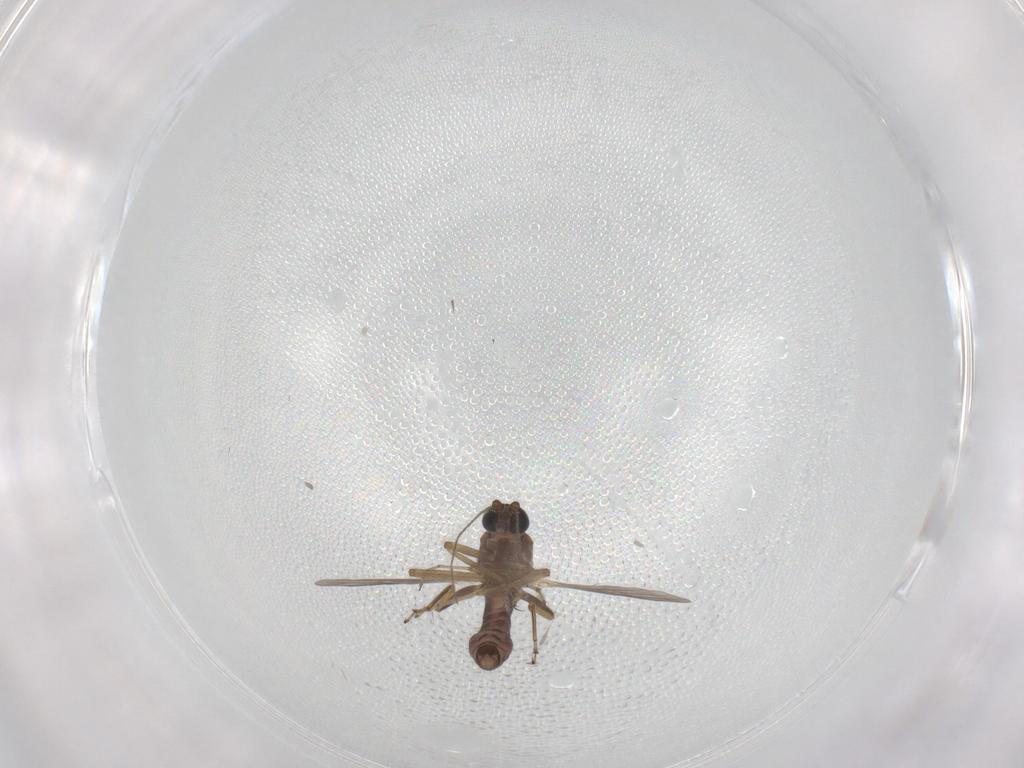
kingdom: Animalia
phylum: Arthropoda
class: Insecta
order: Diptera
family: Ceratopogonidae
